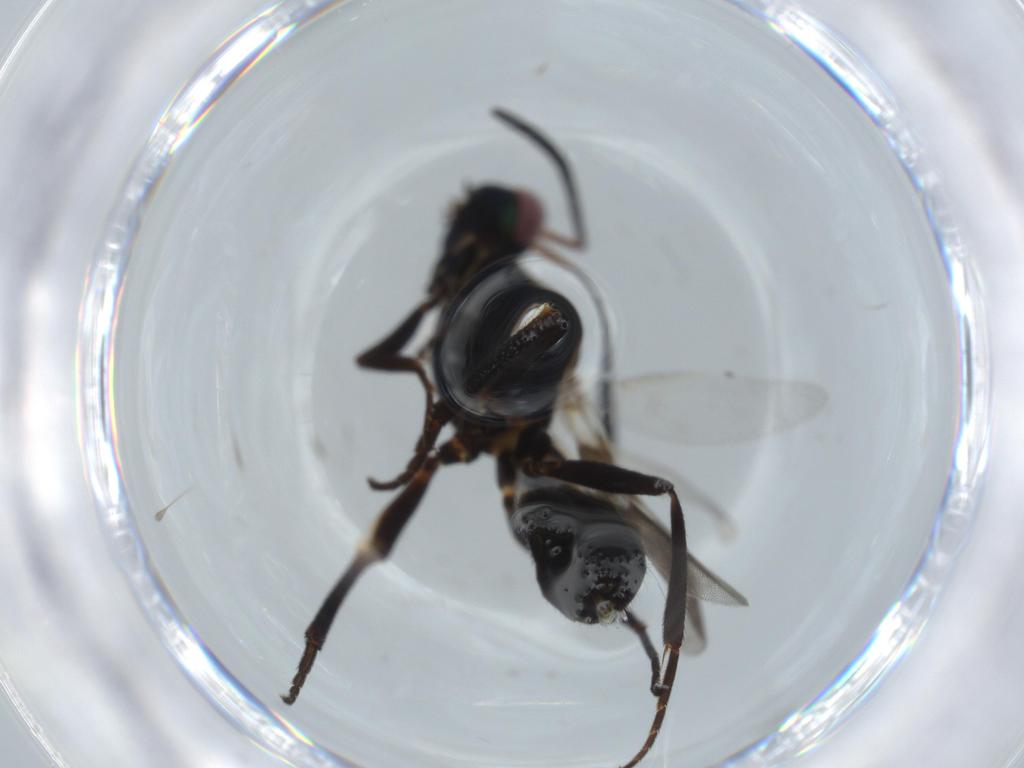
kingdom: Animalia
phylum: Arthropoda
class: Insecta
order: Hymenoptera
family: Eupelmidae
